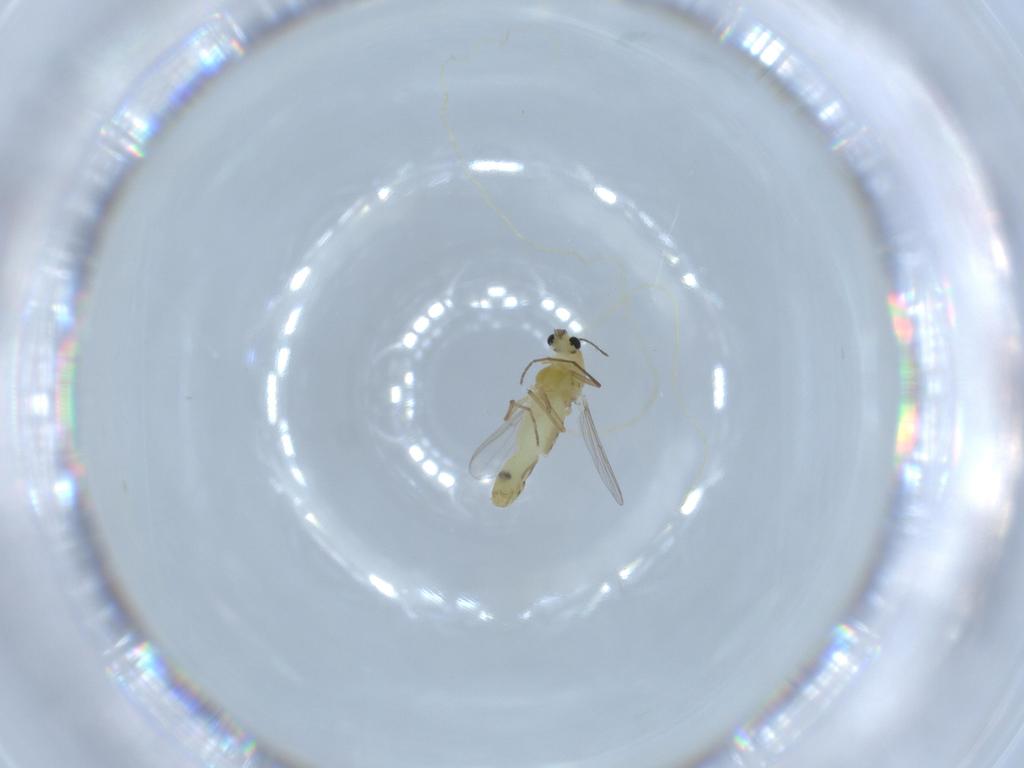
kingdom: Animalia
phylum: Arthropoda
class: Insecta
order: Diptera
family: Chironomidae
